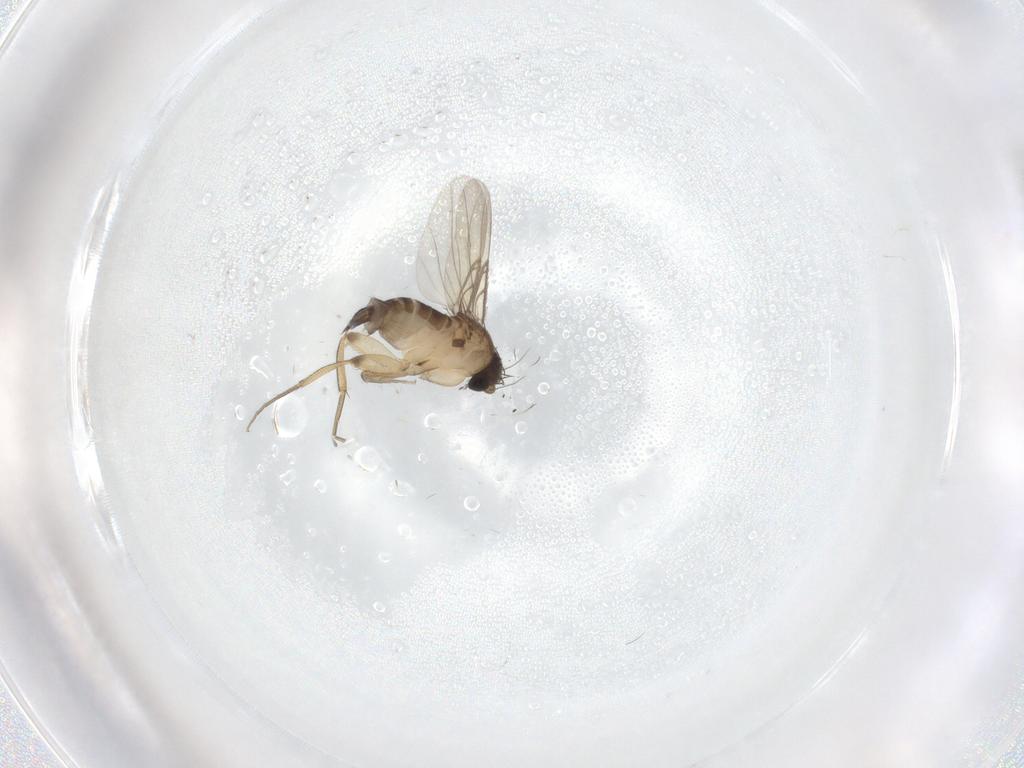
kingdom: Animalia
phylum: Arthropoda
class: Insecta
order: Diptera
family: Phoridae
